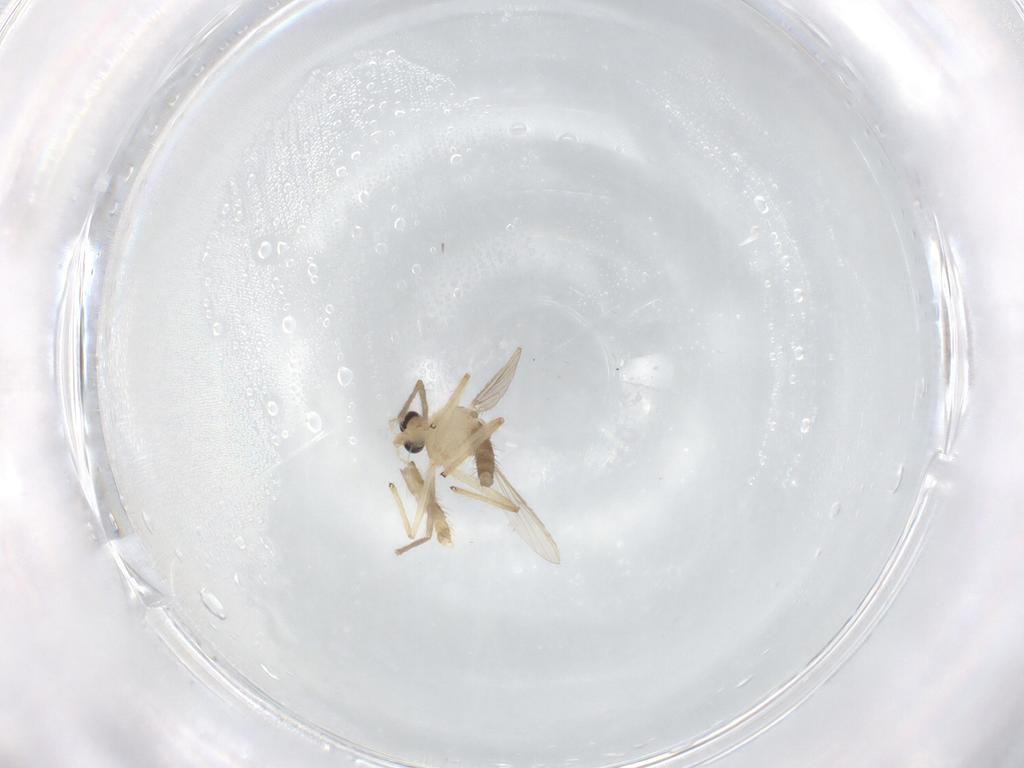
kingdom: Animalia
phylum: Arthropoda
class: Insecta
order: Diptera
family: Chironomidae
